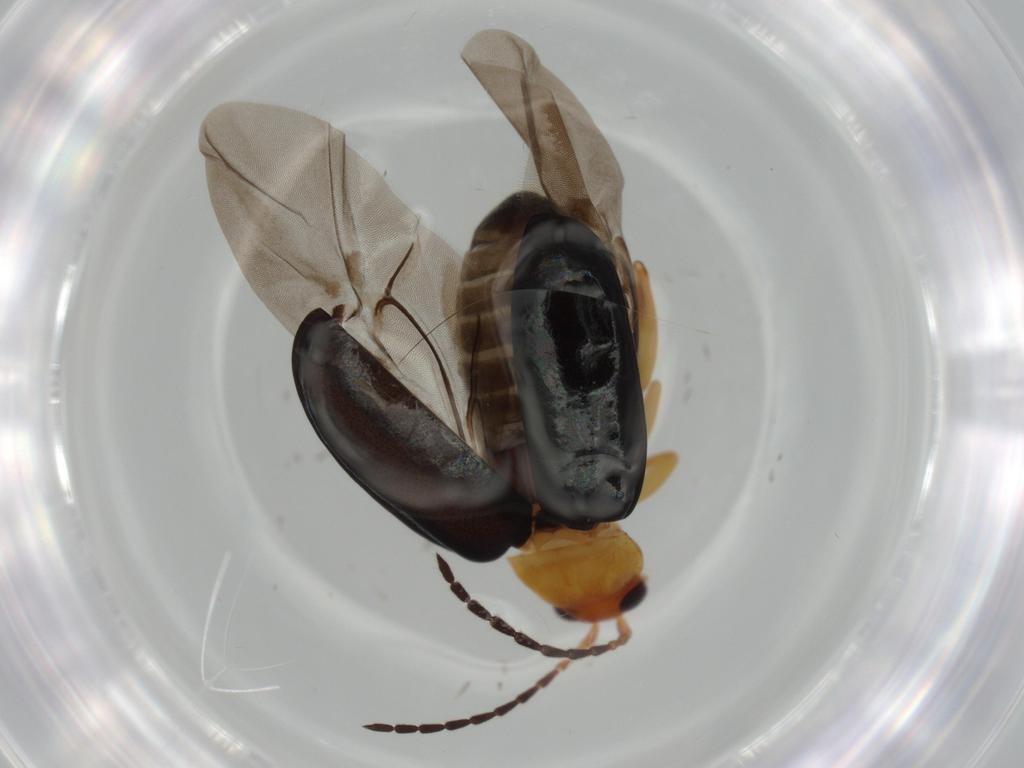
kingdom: Animalia
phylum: Arthropoda
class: Insecta
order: Coleoptera
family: Chrysomelidae
